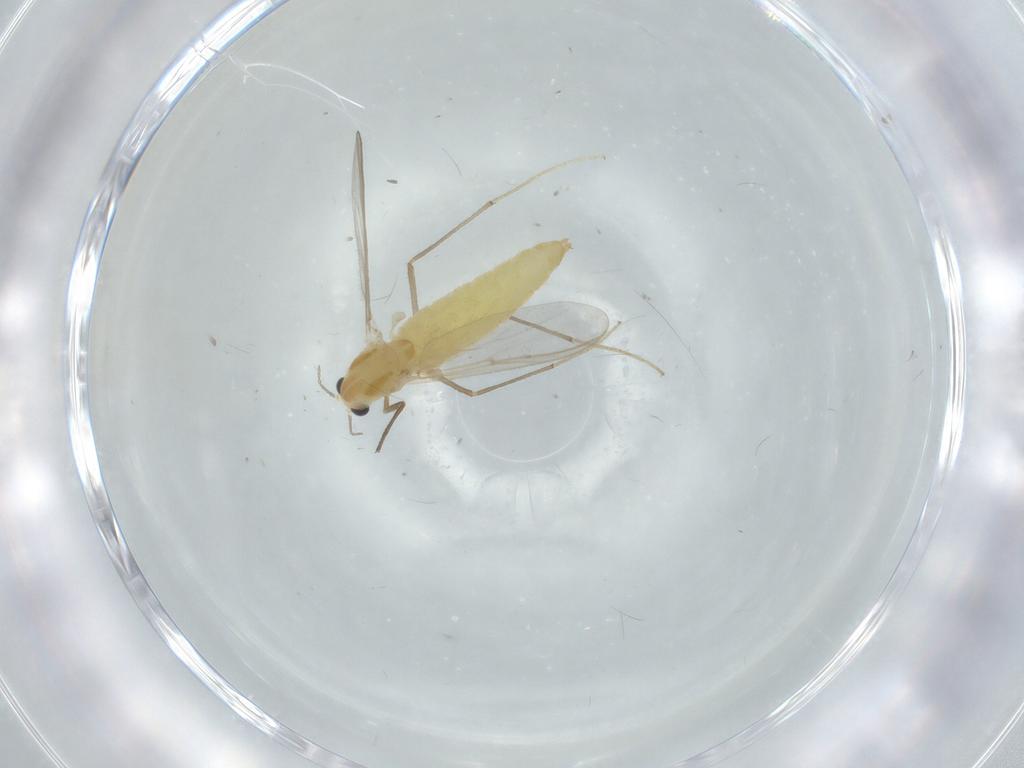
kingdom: Animalia
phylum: Arthropoda
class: Insecta
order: Diptera
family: Chironomidae
